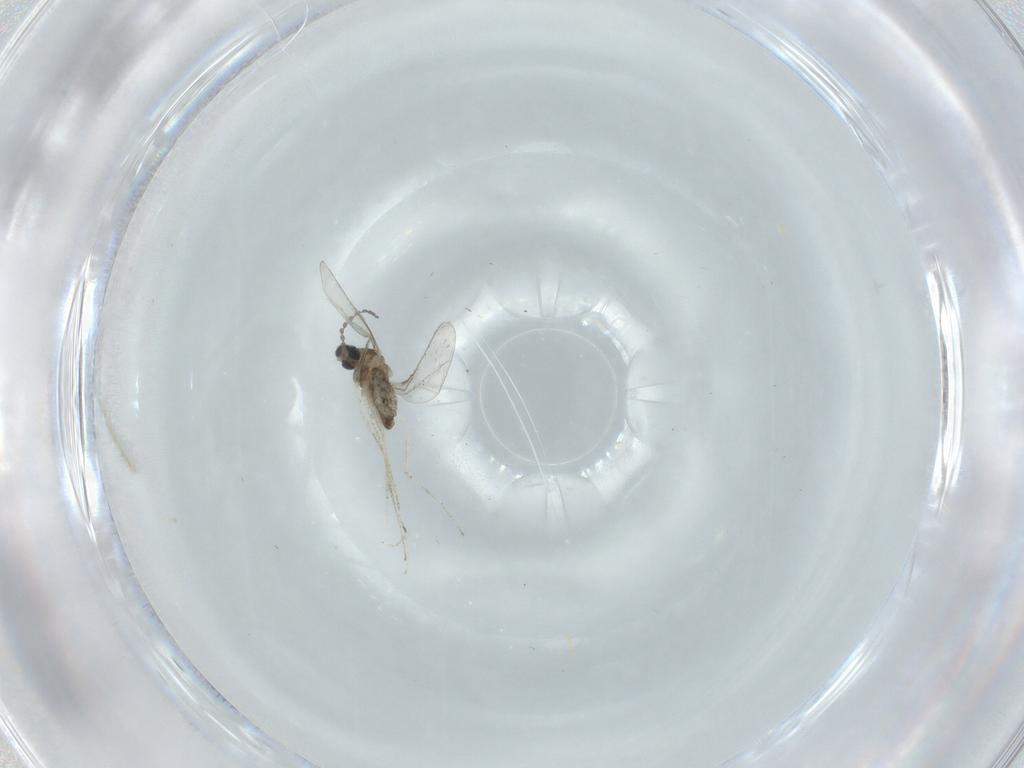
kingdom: Animalia
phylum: Arthropoda
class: Insecta
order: Diptera
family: Cecidomyiidae
